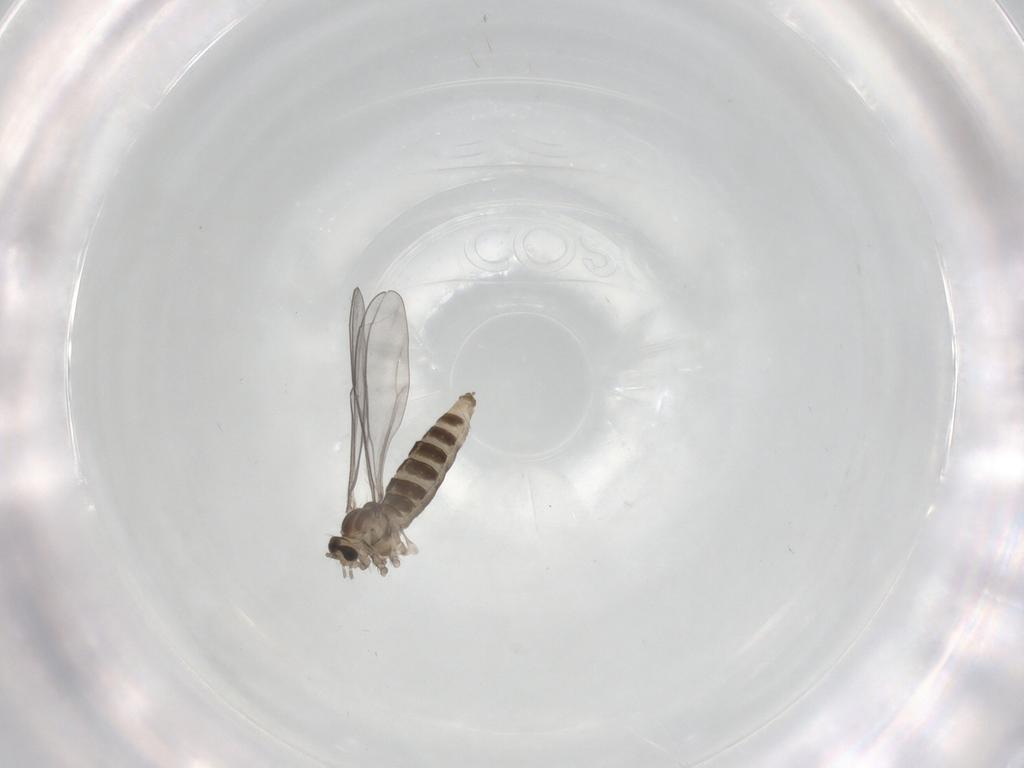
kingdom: Animalia
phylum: Arthropoda
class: Insecta
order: Diptera
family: Cecidomyiidae
